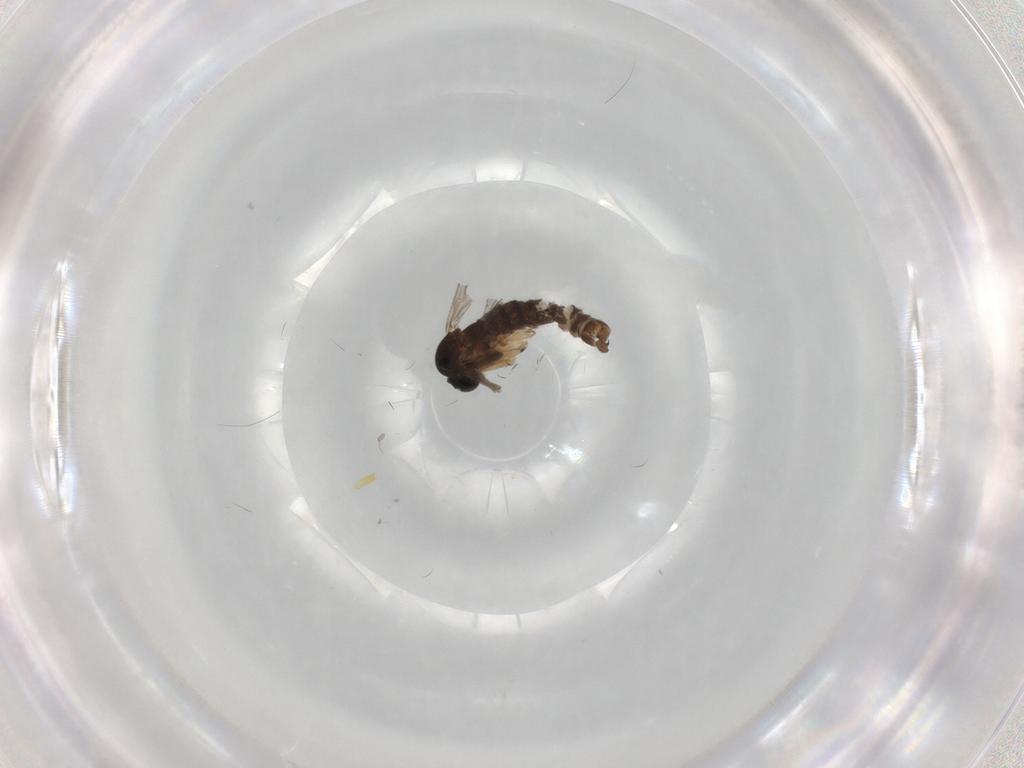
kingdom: Animalia
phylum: Arthropoda
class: Insecta
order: Diptera
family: Sciaridae
